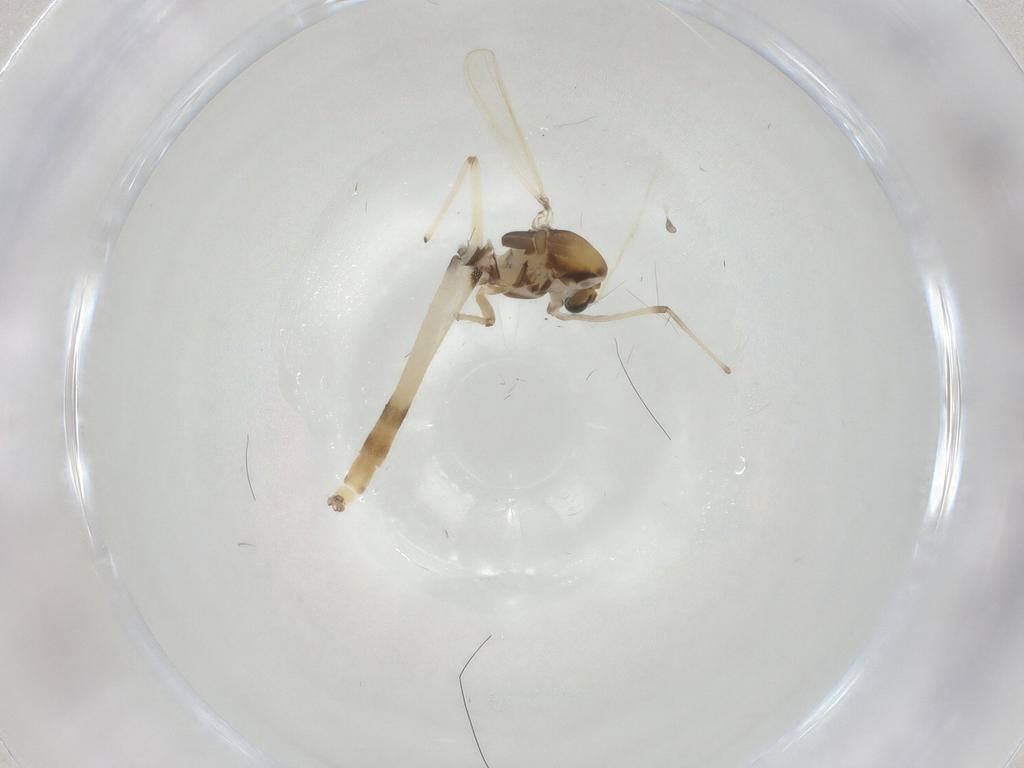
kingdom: Animalia
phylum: Arthropoda
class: Insecta
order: Diptera
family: Chironomidae
